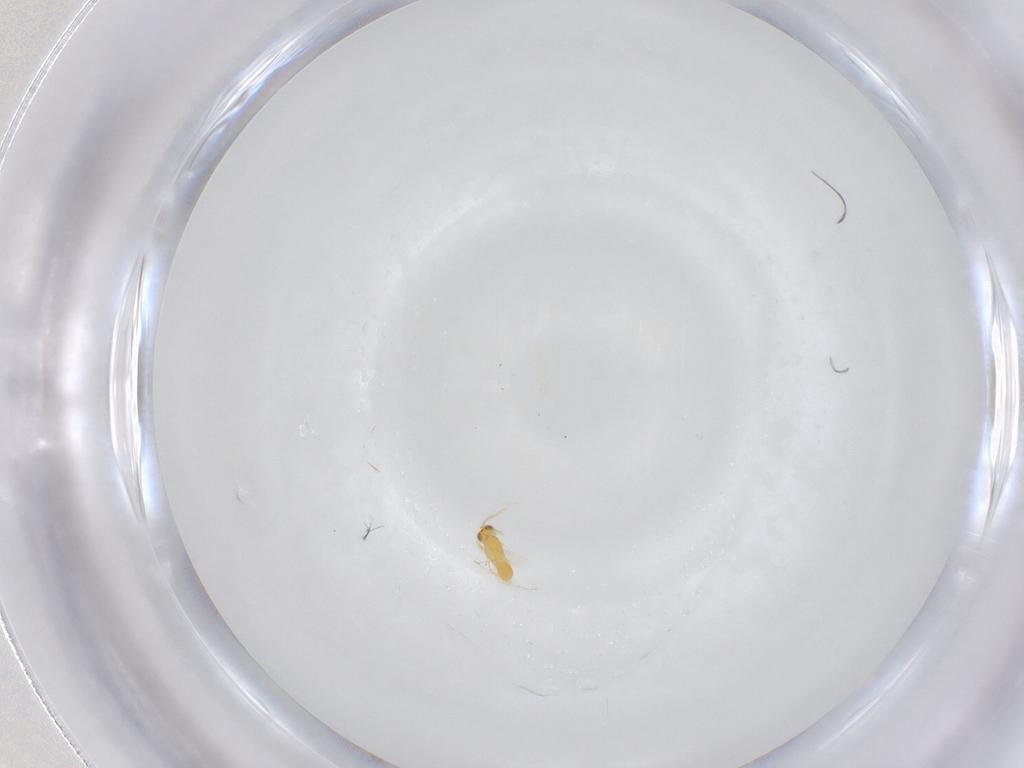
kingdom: Animalia
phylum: Arthropoda
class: Insecta
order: Hymenoptera
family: Aphelinidae
